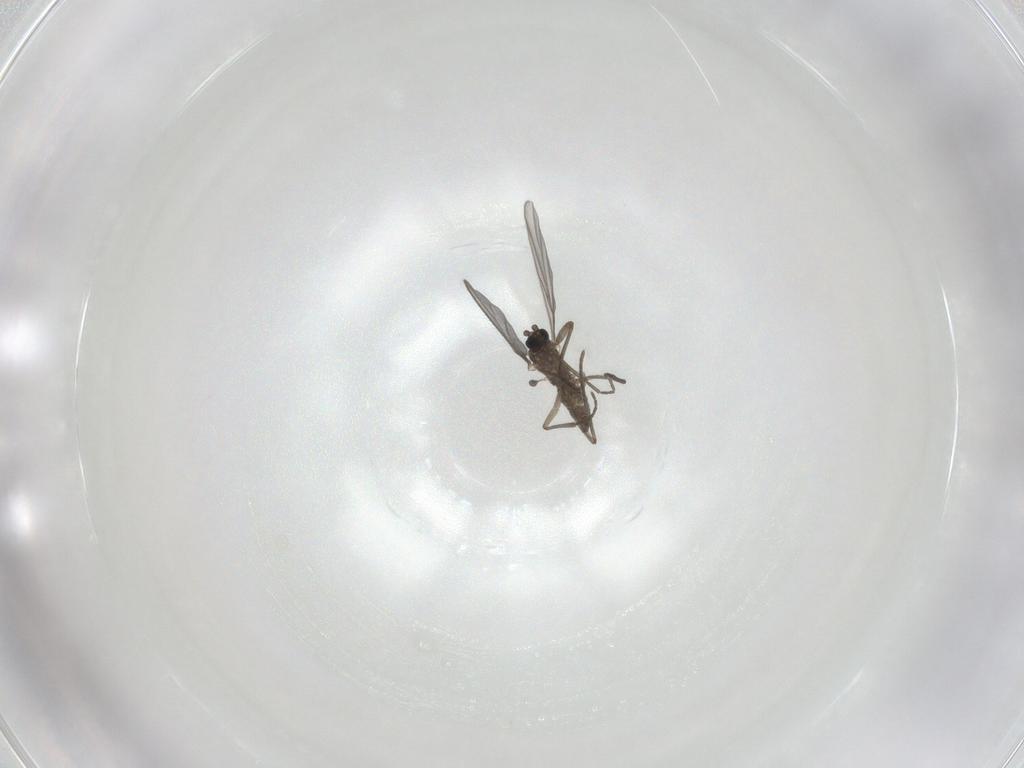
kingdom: Animalia
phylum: Arthropoda
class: Insecta
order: Diptera
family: Sciaridae
